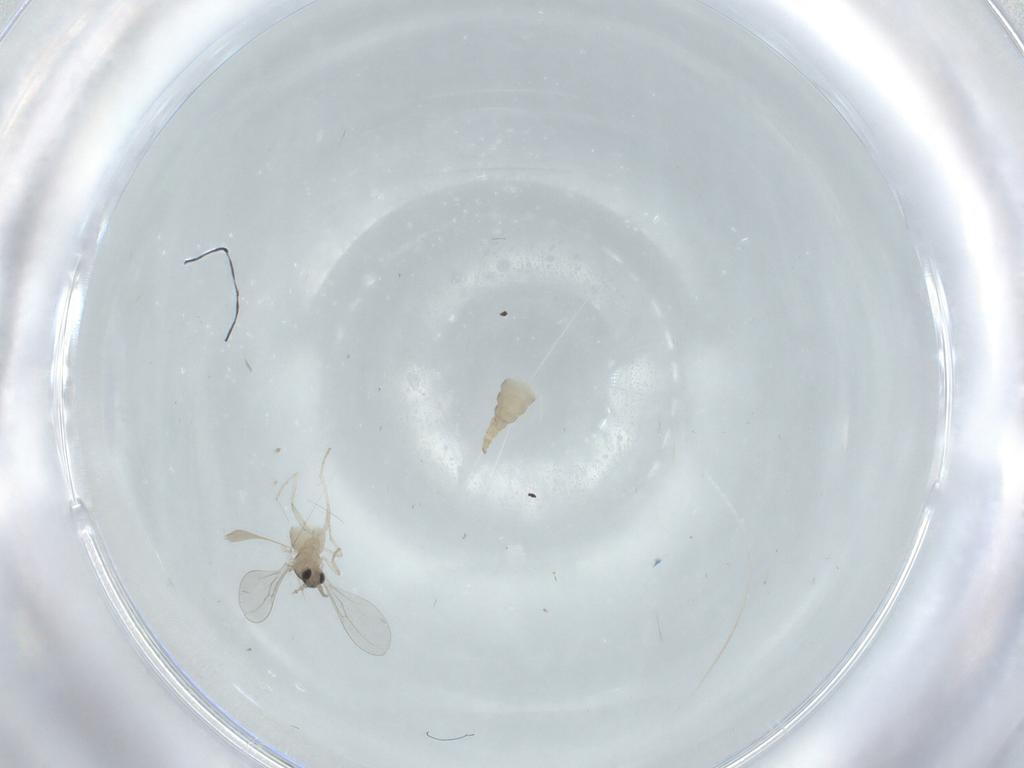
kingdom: Animalia
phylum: Arthropoda
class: Insecta
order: Diptera
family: Cecidomyiidae
